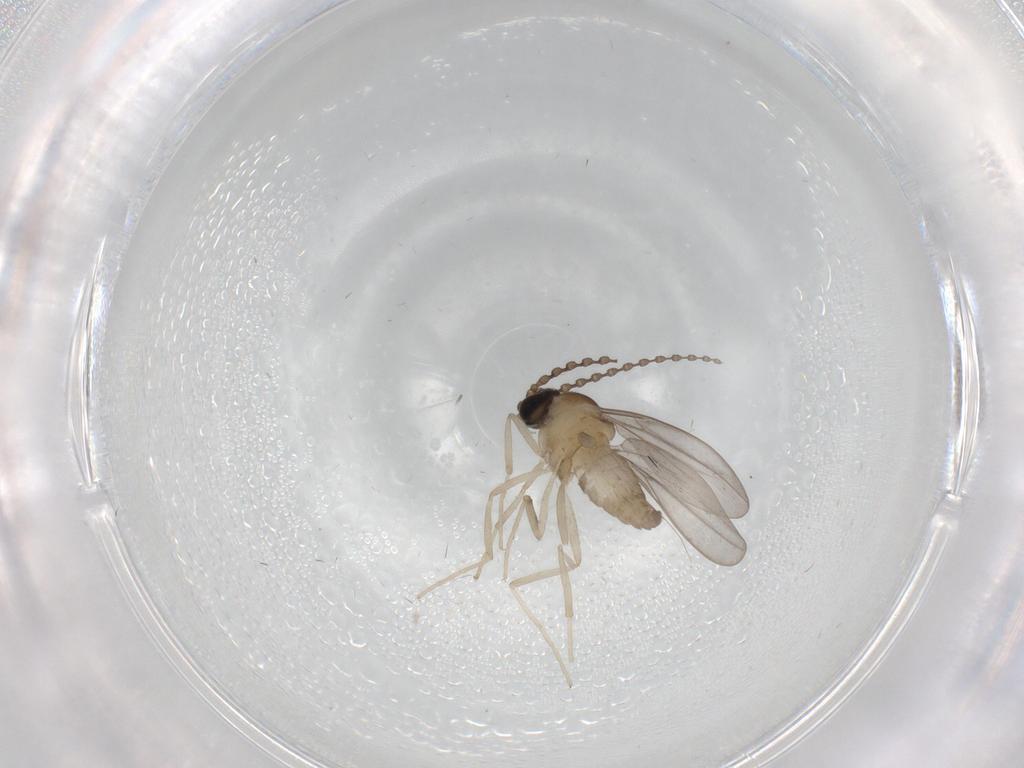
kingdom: Animalia
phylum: Arthropoda
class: Insecta
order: Diptera
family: Cecidomyiidae
